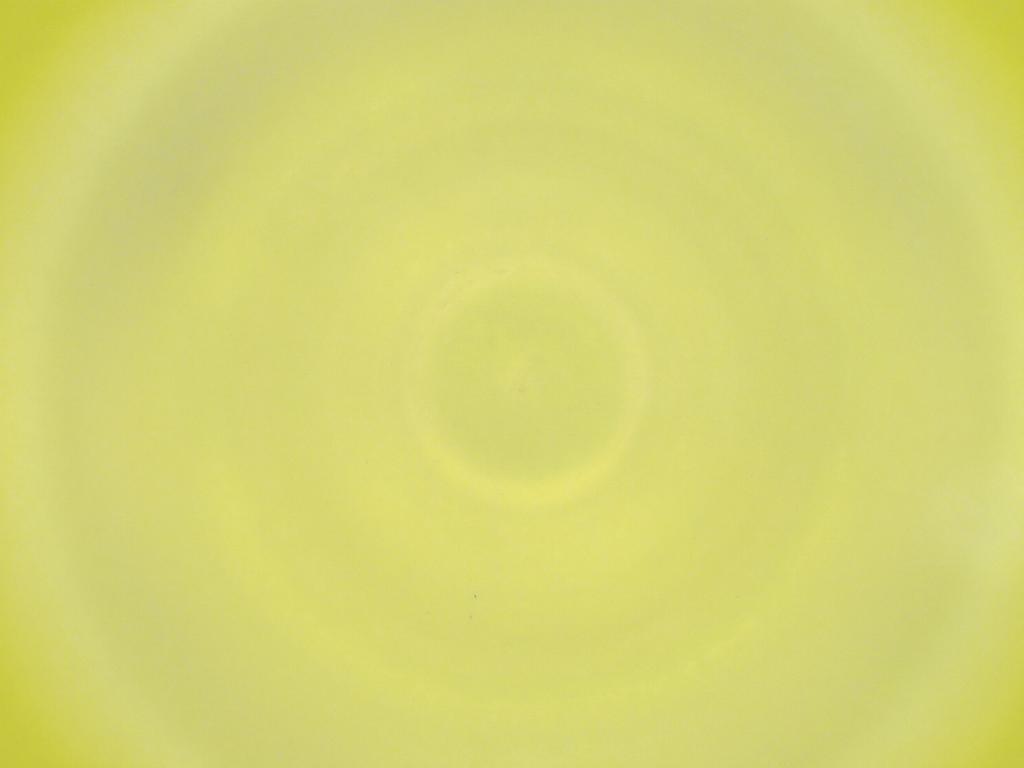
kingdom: Animalia
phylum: Arthropoda
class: Insecta
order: Diptera
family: Cecidomyiidae
